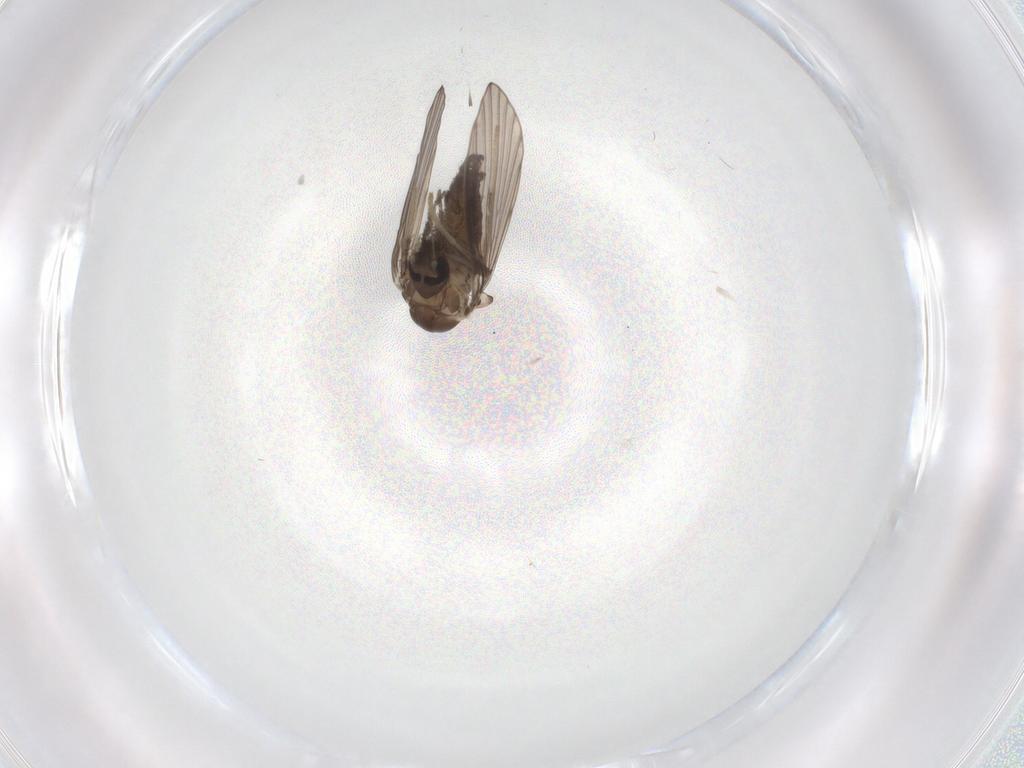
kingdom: Animalia
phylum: Arthropoda
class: Insecta
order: Diptera
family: Psychodidae
